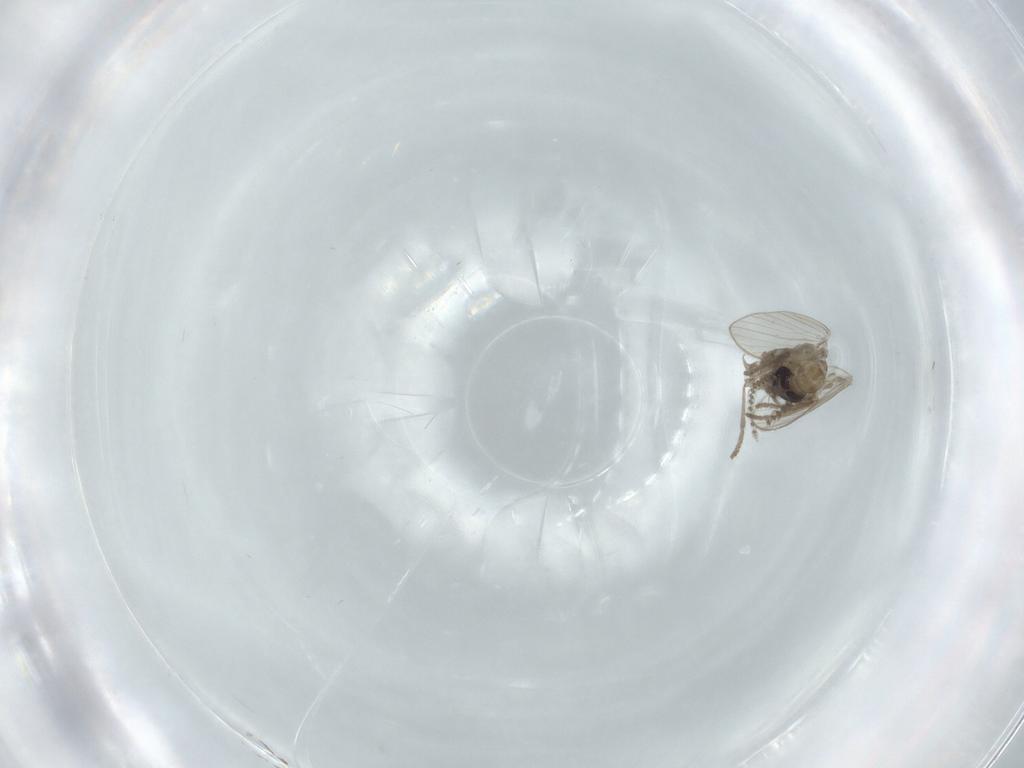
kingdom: Animalia
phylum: Arthropoda
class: Insecta
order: Diptera
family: Psychodidae
